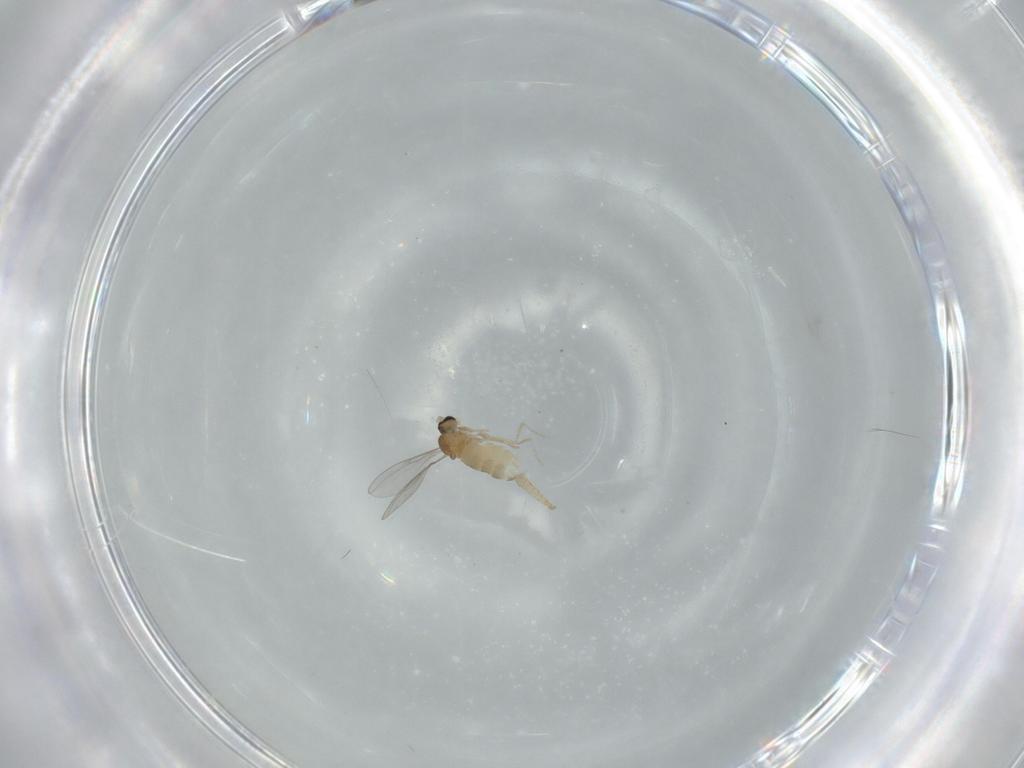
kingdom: Animalia
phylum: Arthropoda
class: Insecta
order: Diptera
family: Cecidomyiidae
